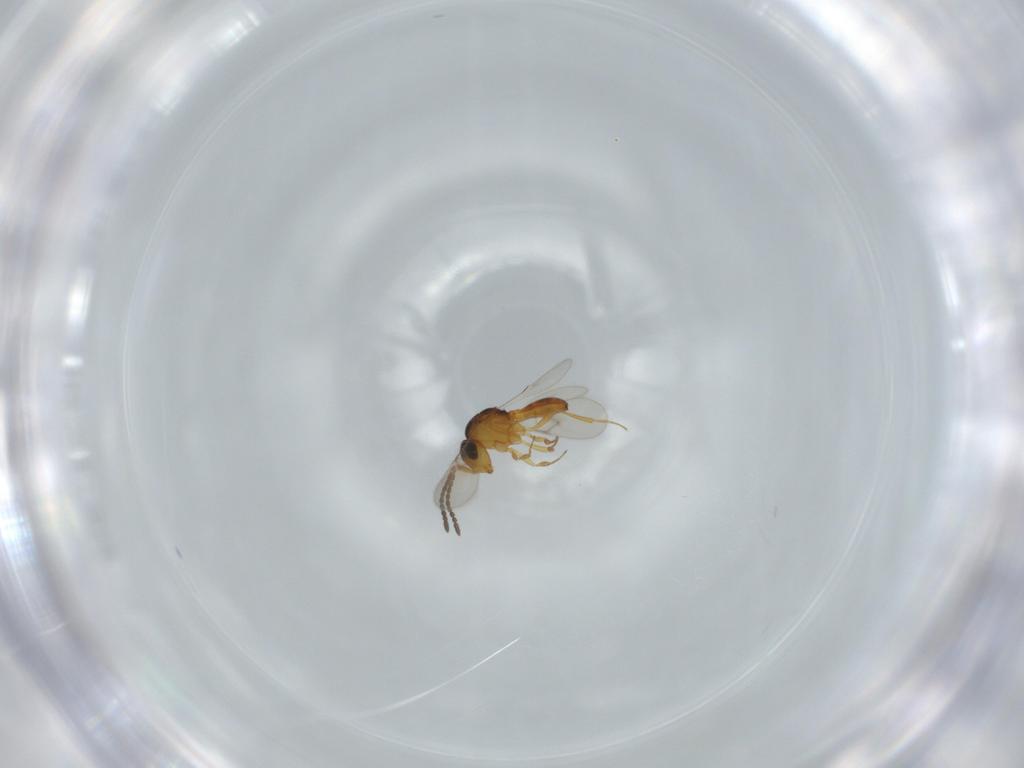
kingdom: Animalia
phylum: Arthropoda
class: Insecta
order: Hymenoptera
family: Scelionidae
